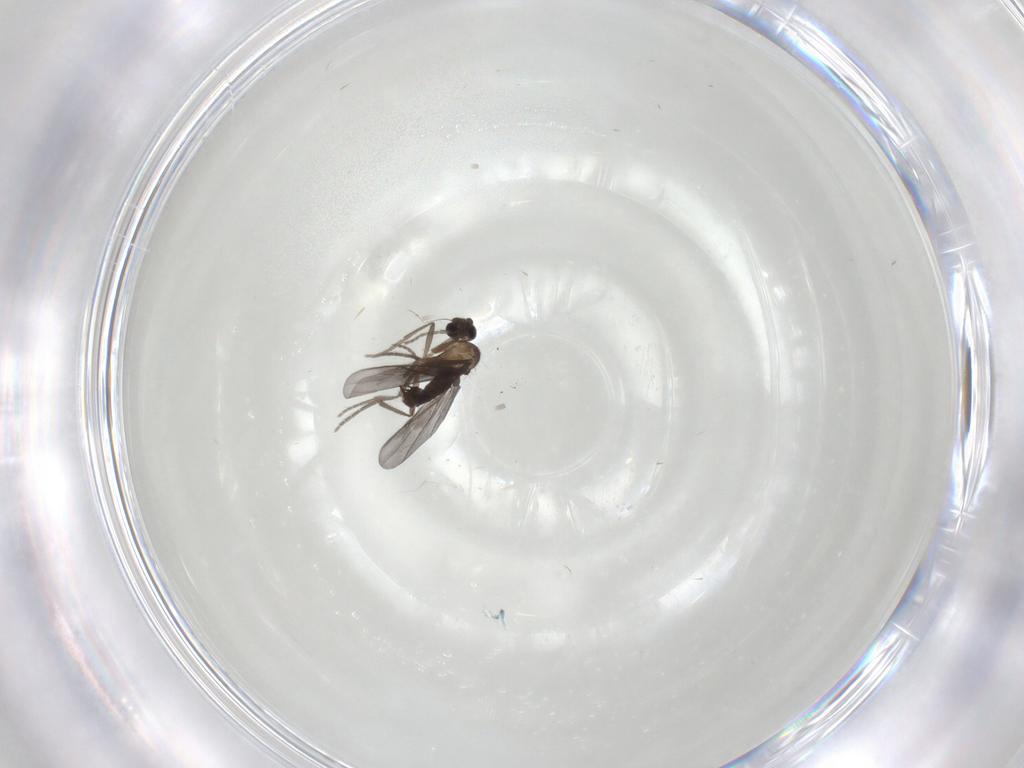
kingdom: Animalia
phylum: Arthropoda
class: Insecta
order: Diptera
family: Phoridae
